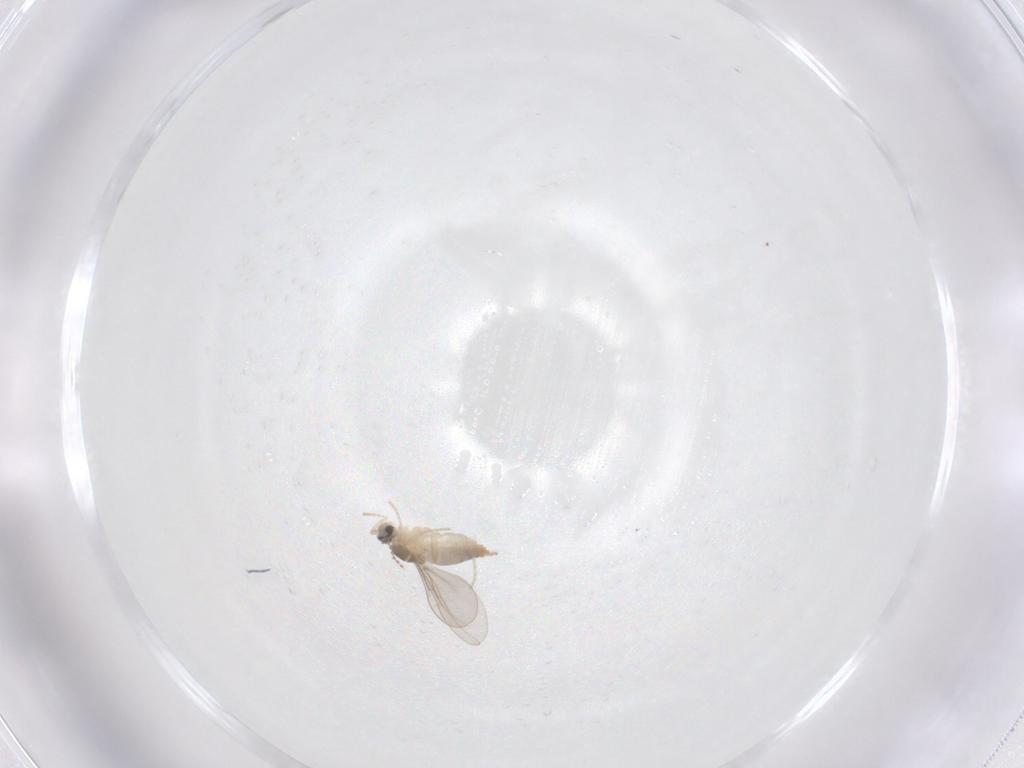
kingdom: Animalia
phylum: Arthropoda
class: Insecta
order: Diptera
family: Cecidomyiidae
